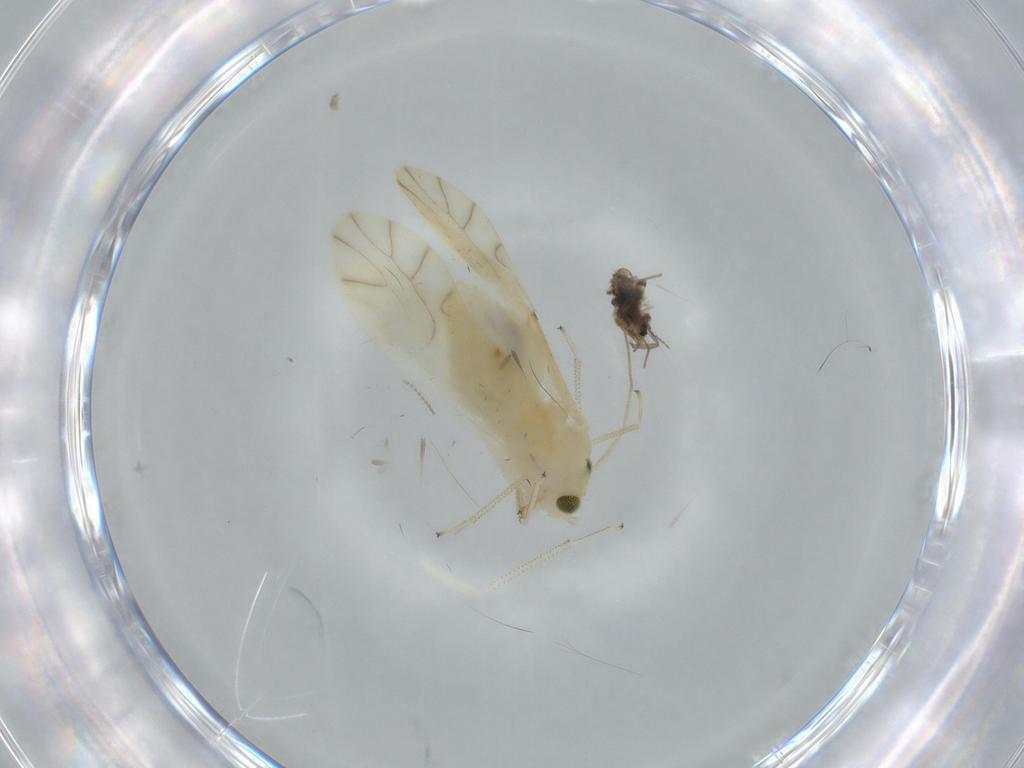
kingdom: Animalia
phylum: Arthropoda
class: Insecta
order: Psocodea
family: Caeciliusidae
